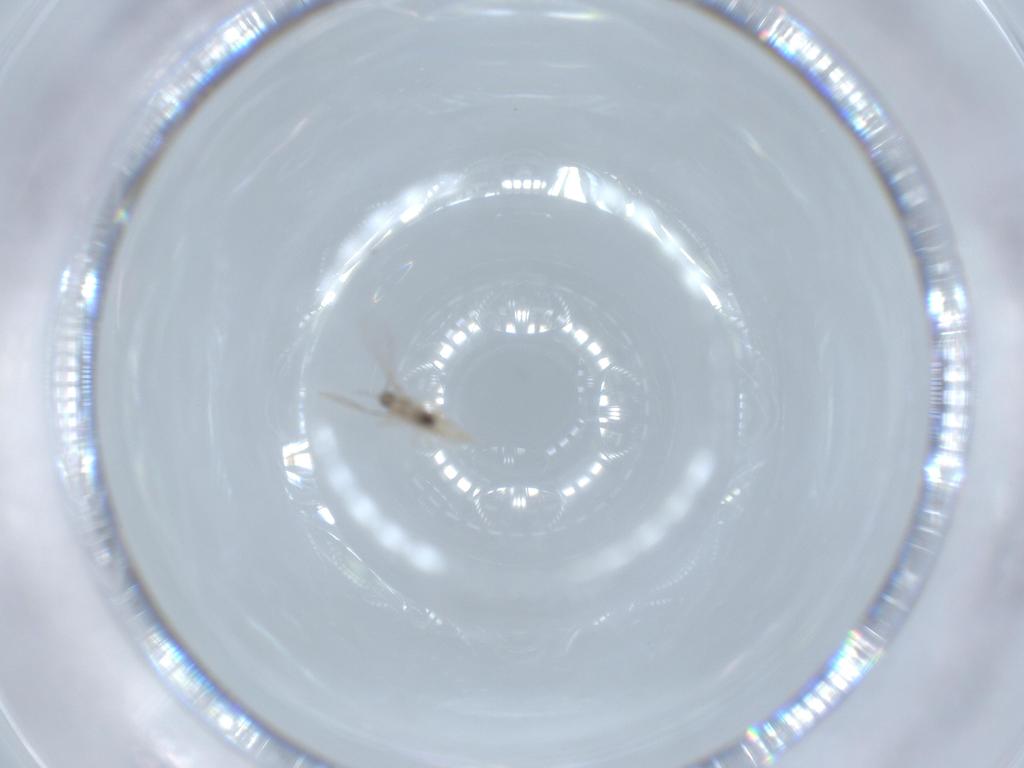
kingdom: Animalia
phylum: Arthropoda
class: Insecta
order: Diptera
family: Cecidomyiidae
